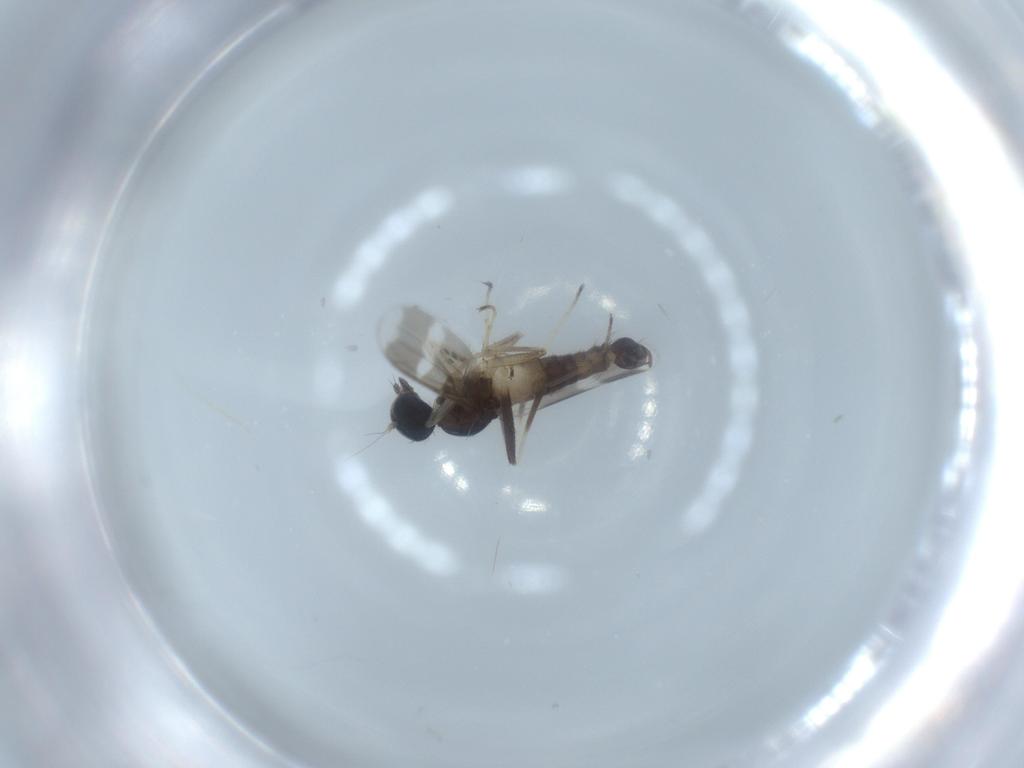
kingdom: Animalia
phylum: Arthropoda
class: Insecta
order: Diptera
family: Hybotidae
